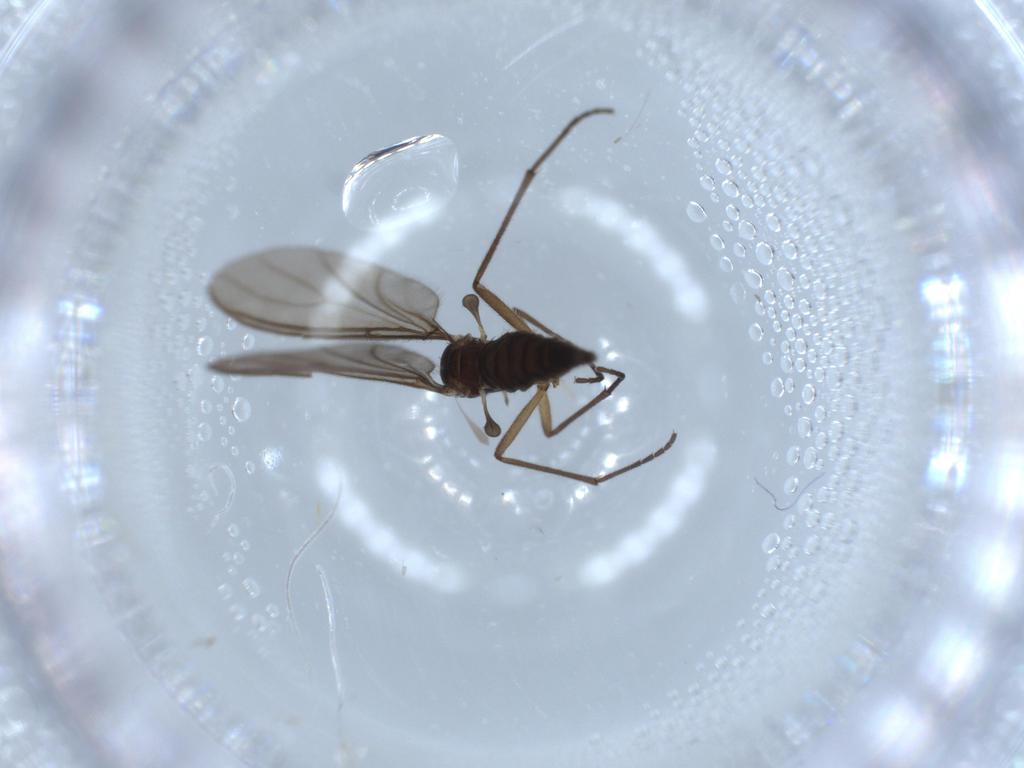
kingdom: Animalia
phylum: Arthropoda
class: Insecta
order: Diptera
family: Sciaridae
